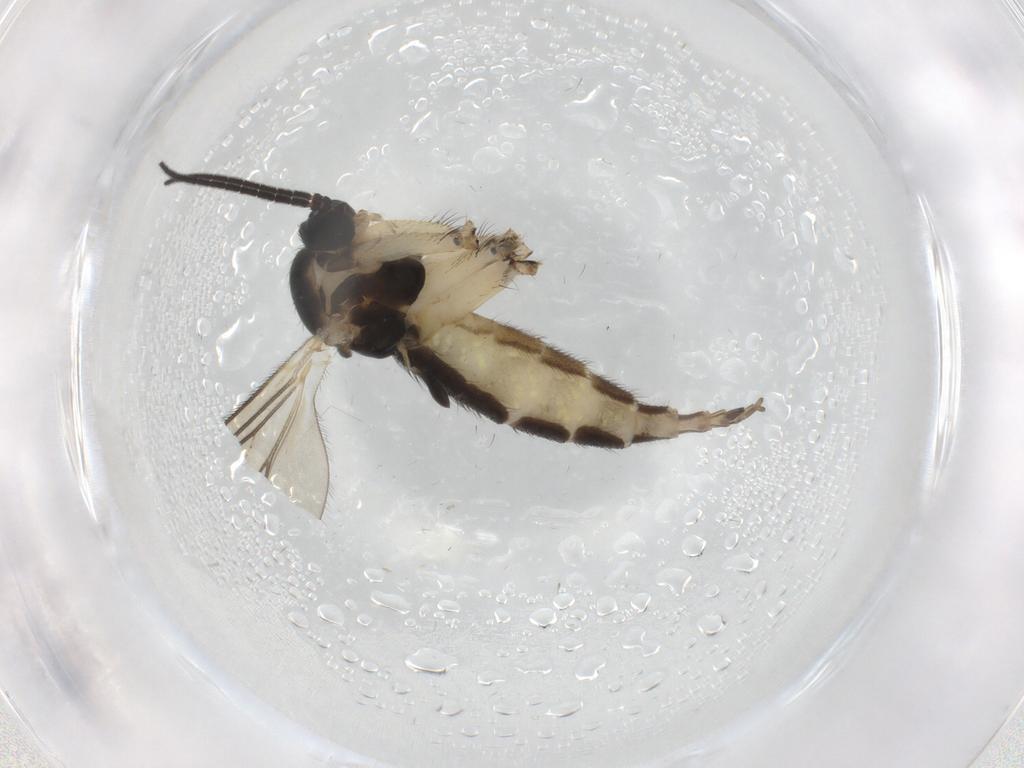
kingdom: Animalia
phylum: Arthropoda
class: Insecta
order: Diptera
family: Sciaridae
